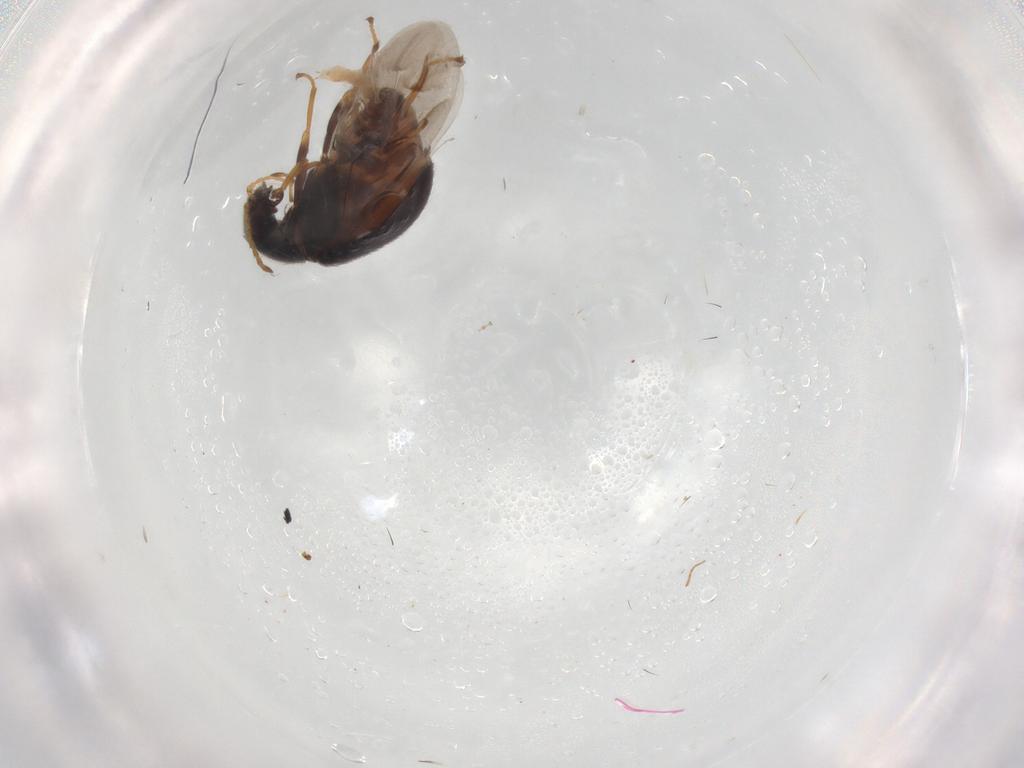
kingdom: Animalia
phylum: Arthropoda
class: Insecta
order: Coleoptera
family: Melyridae
